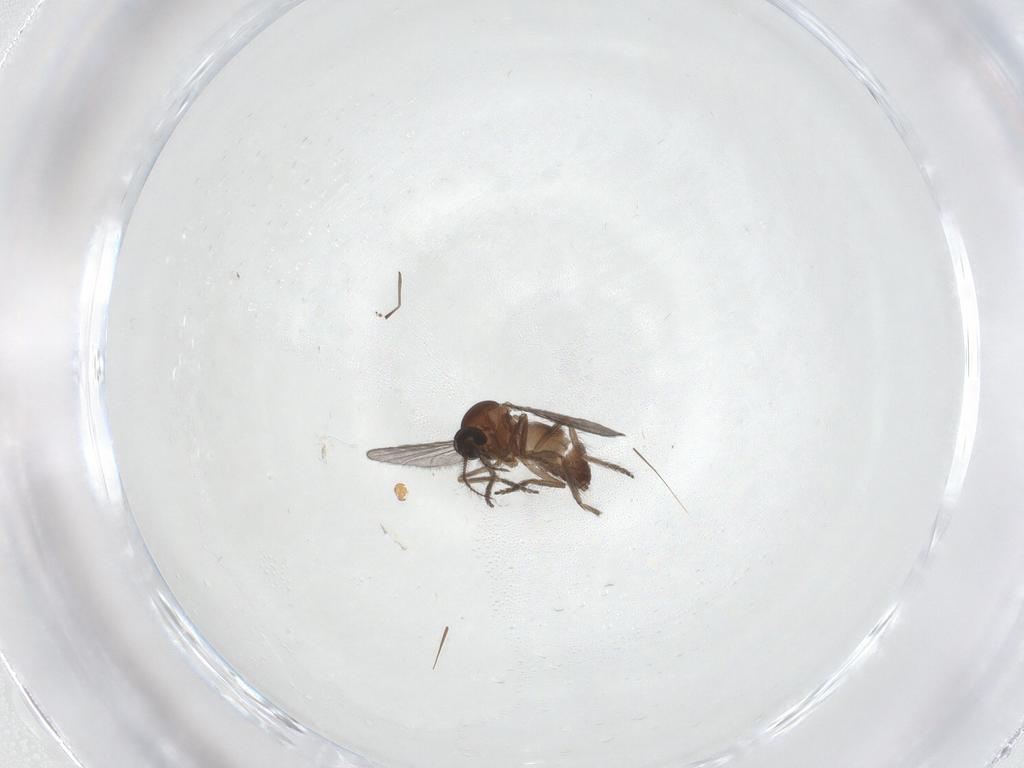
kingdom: Animalia
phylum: Arthropoda
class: Insecta
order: Diptera
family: Ceratopogonidae
